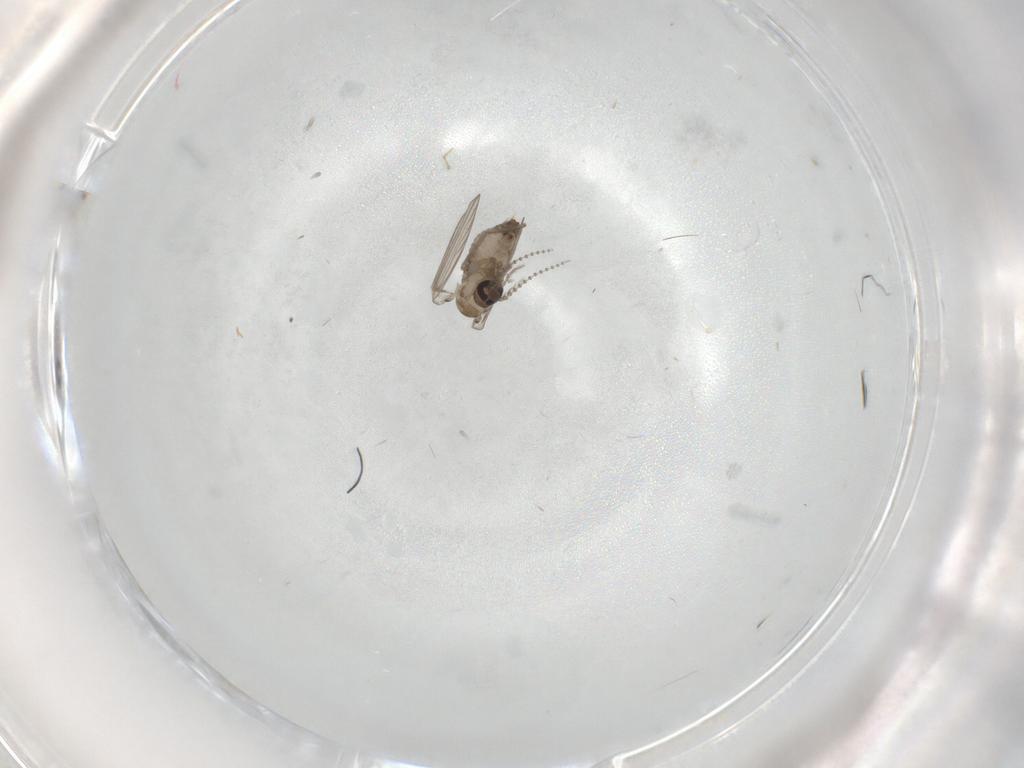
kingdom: Animalia
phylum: Arthropoda
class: Insecta
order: Diptera
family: Psychodidae
